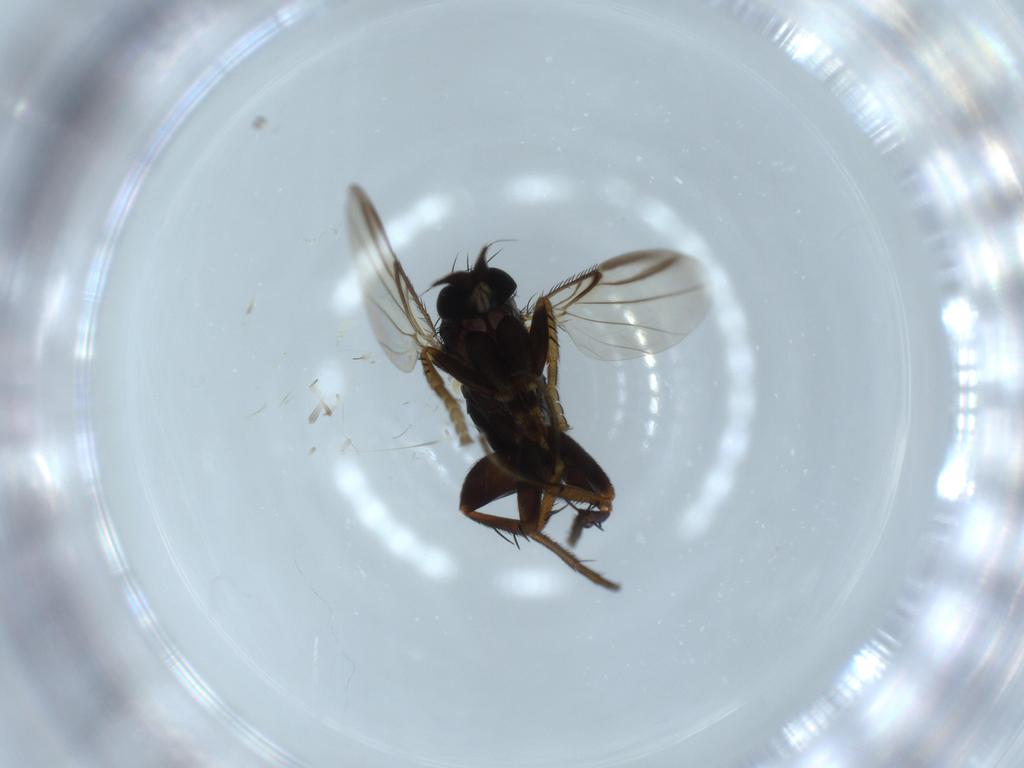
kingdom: Animalia
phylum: Arthropoda
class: Insecta
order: Diptera
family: Phoridae
